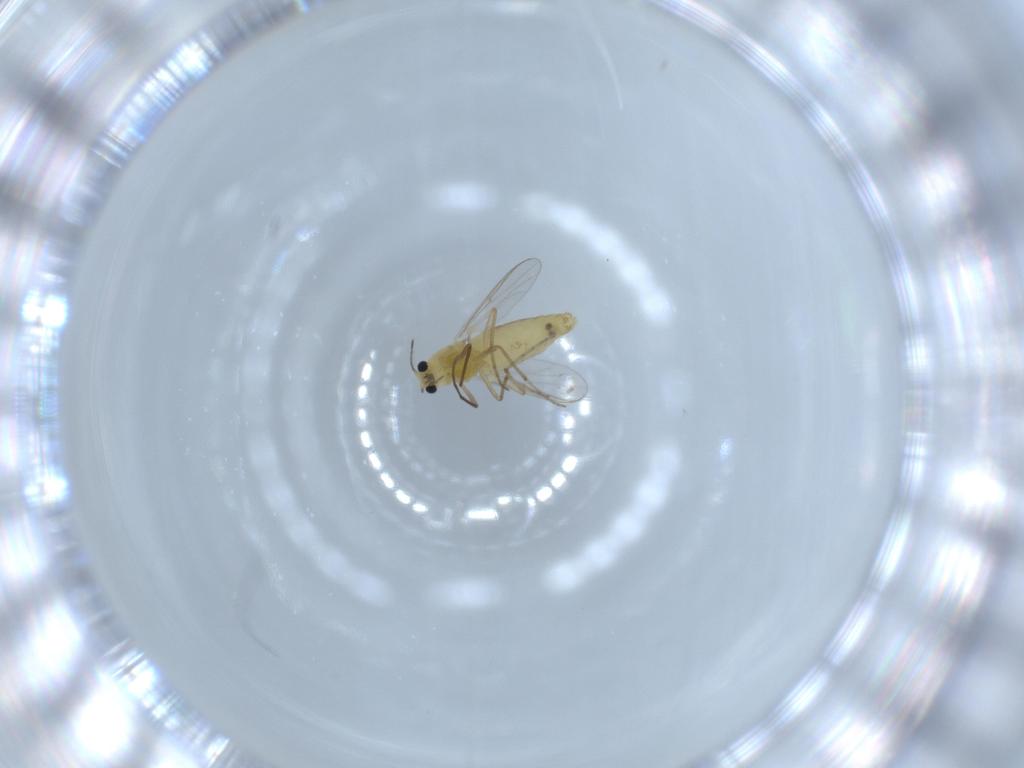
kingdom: Animalia
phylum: Arthropoda
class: Insecta
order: Diptera
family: Chironomidae
